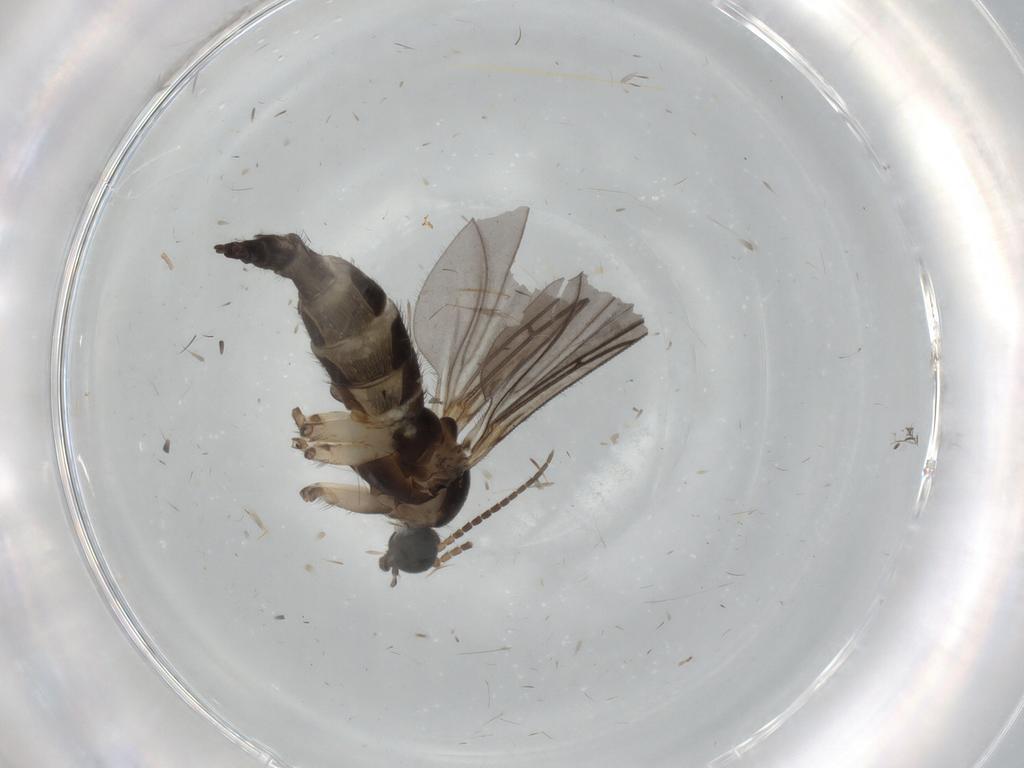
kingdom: Animalia
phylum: Arthropoda
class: Insecta
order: Diptera
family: Sciaridae
